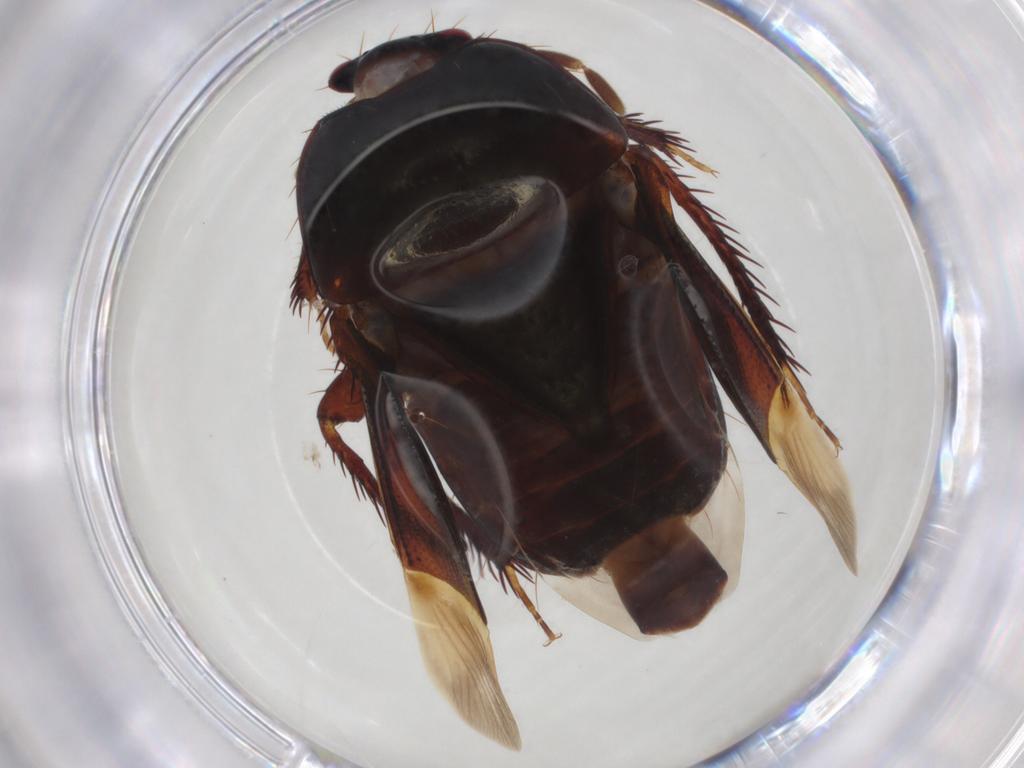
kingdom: Animalia
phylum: Arthropoda
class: Insecta
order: Hemiptera
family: Cydnidae
